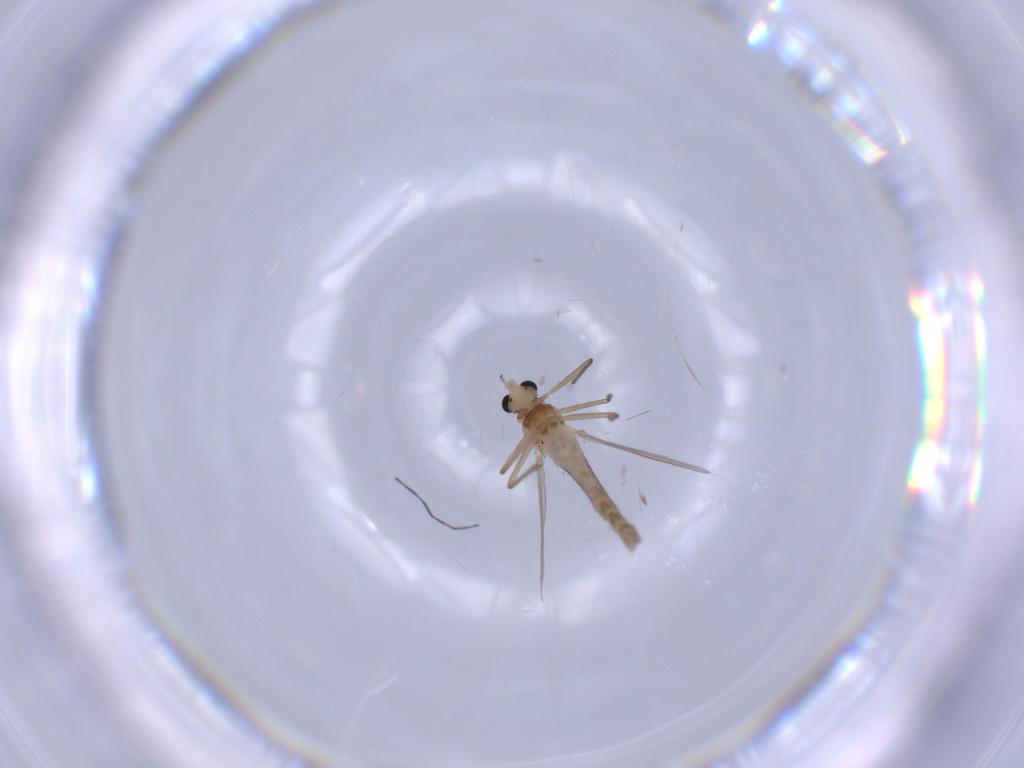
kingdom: Animalia
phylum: Arthropoda
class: Insecta
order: Diptera
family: Chironomidae
